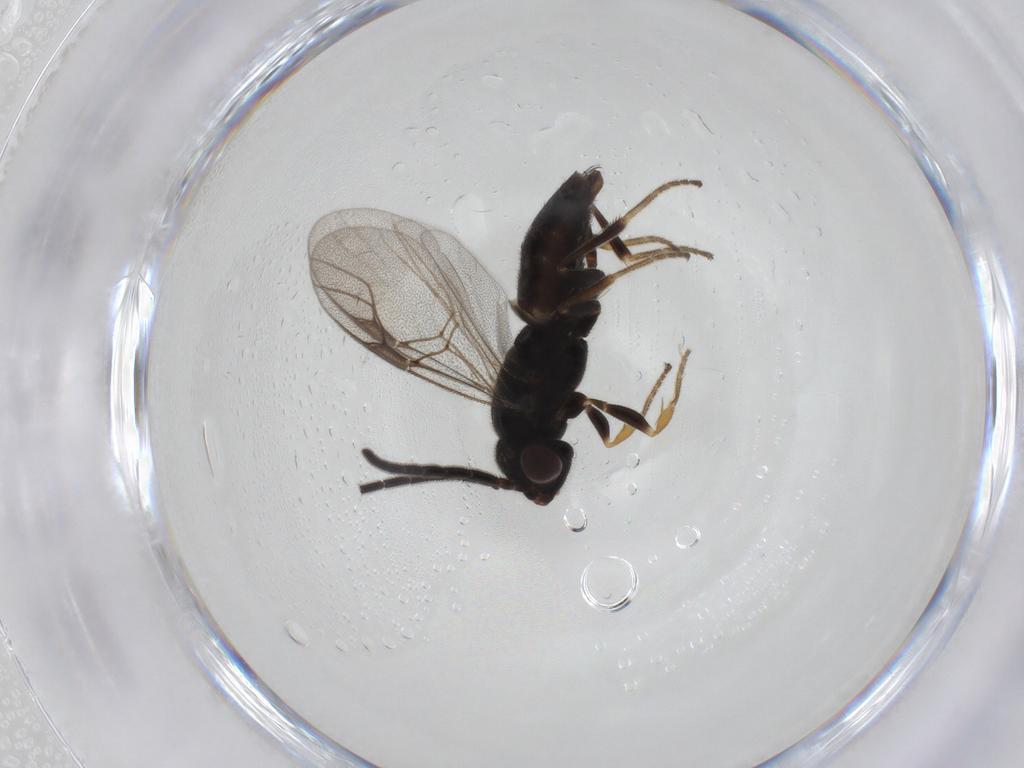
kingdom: Animalia
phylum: Arthropoda
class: Insecta
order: Hymenoptera
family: Dryinidae
